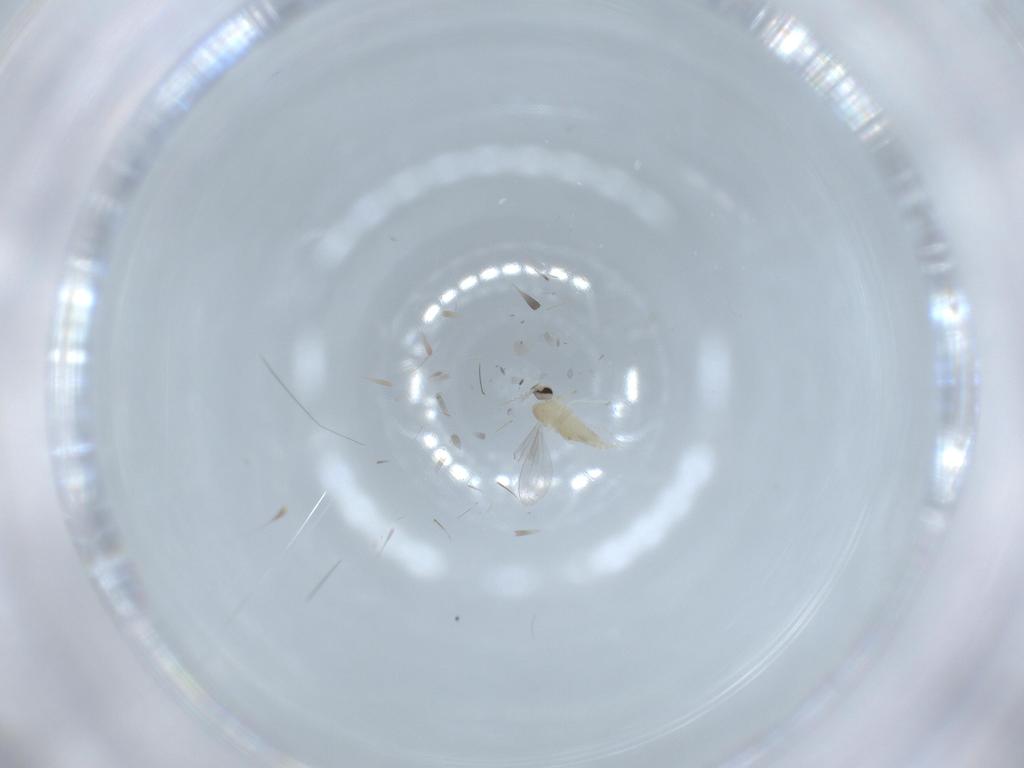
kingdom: Animalia
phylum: Arthropoda
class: Insecta
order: Diptera
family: Cecidomyiidae
